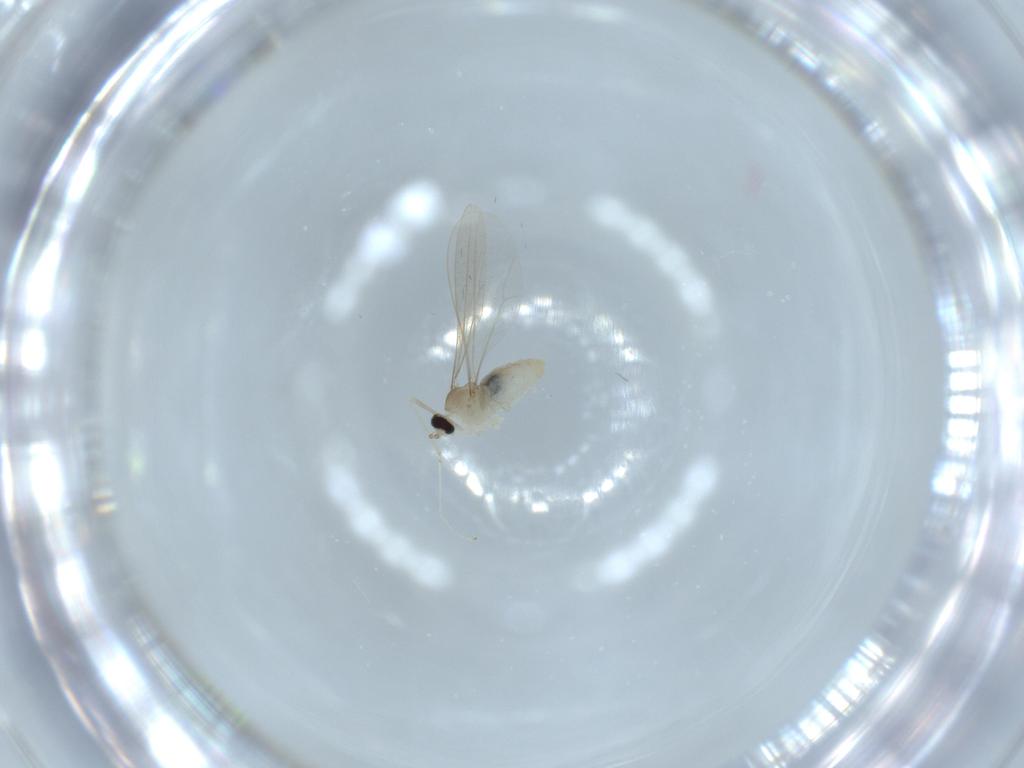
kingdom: Animalia
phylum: Arthropoda
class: Insecta
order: Diptera
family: Cecidomyiidae
